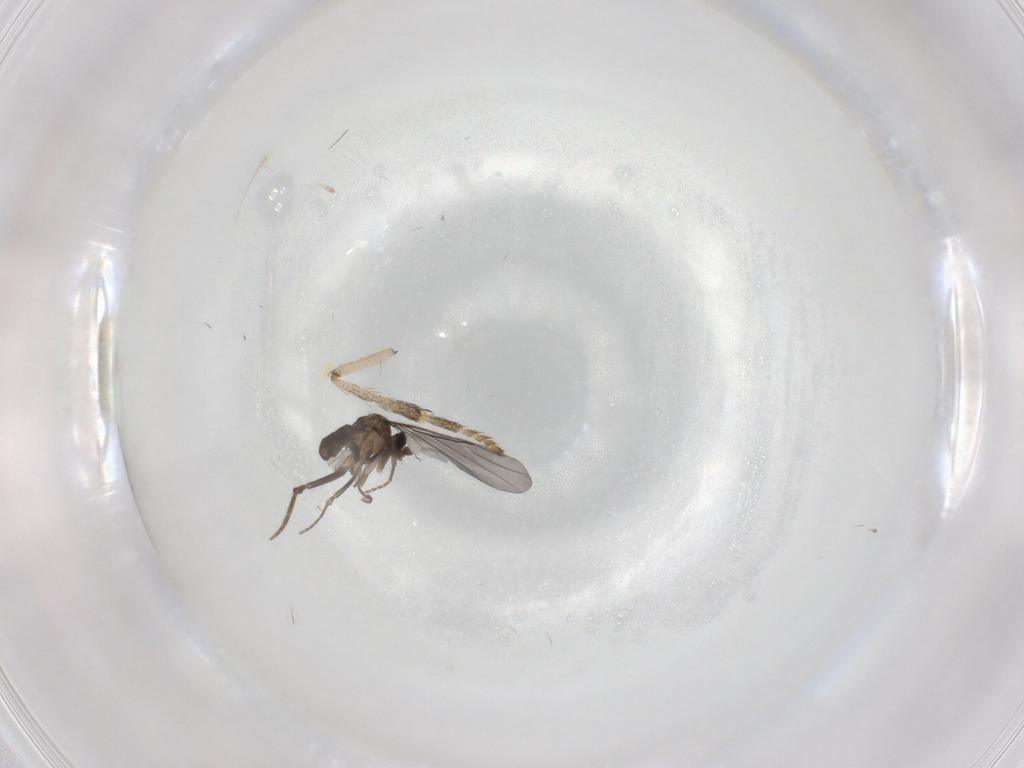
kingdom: Animalia
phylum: Arthropoda
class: Insecta
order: Diptera
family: Phoridae
